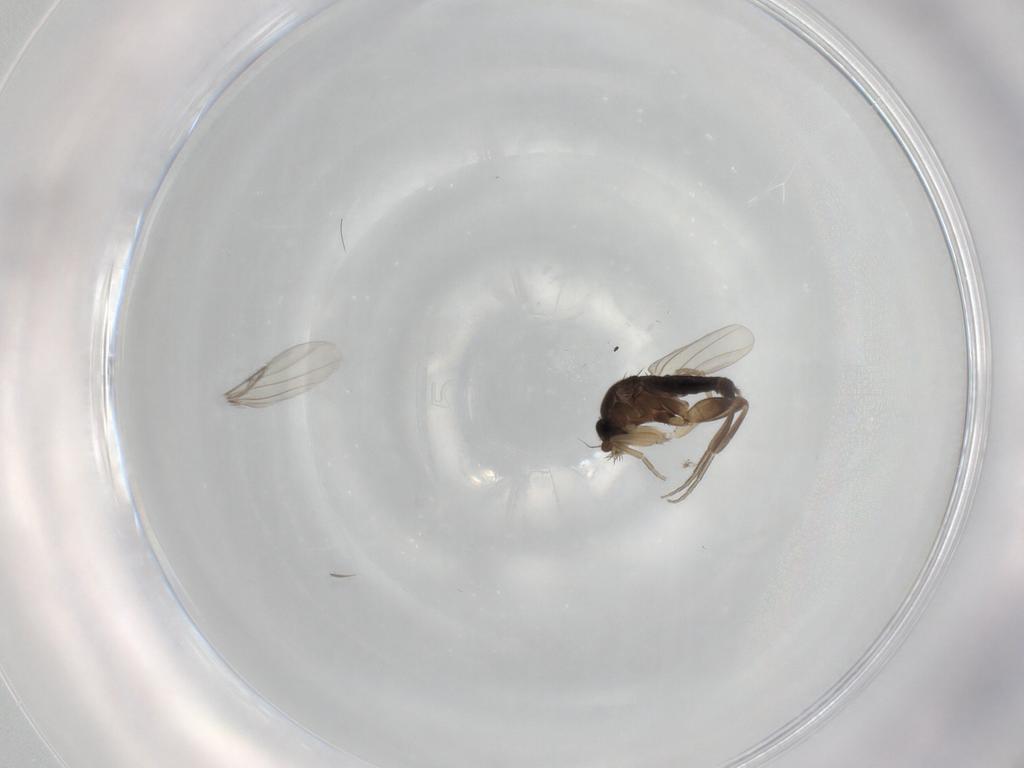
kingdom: Animalia
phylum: Arthropoda
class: Insecta
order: Diptera
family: Phoridae
